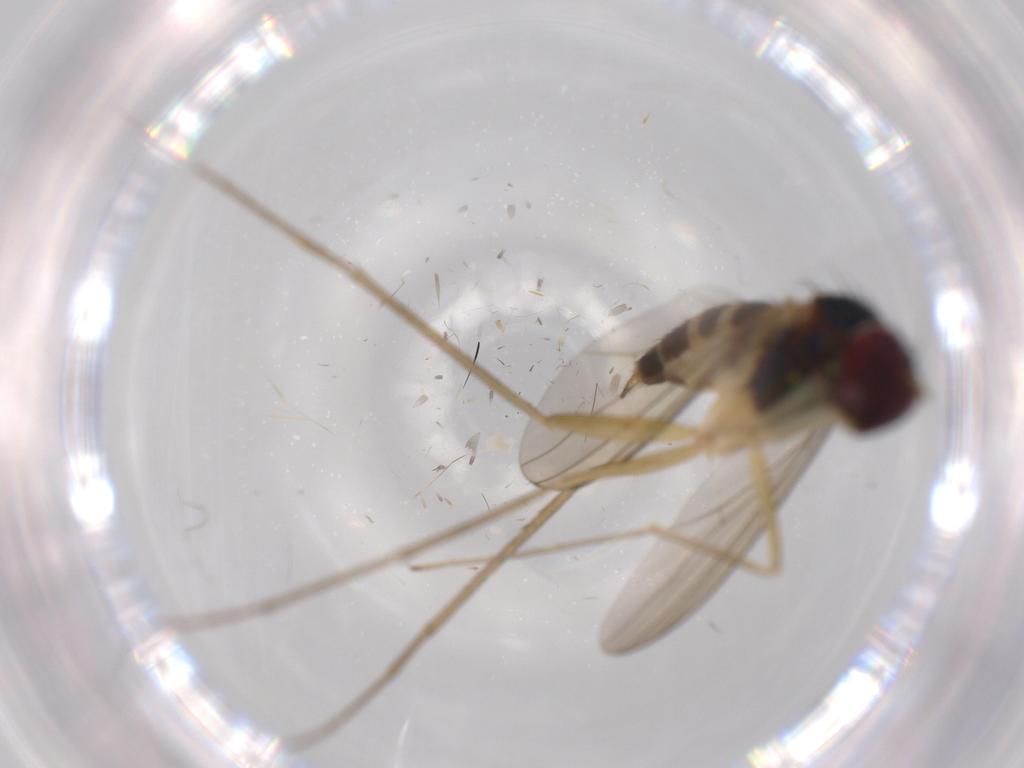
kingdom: Animalia
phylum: Arthropoda
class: Insecta
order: Diptera
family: Dolichopodidae
